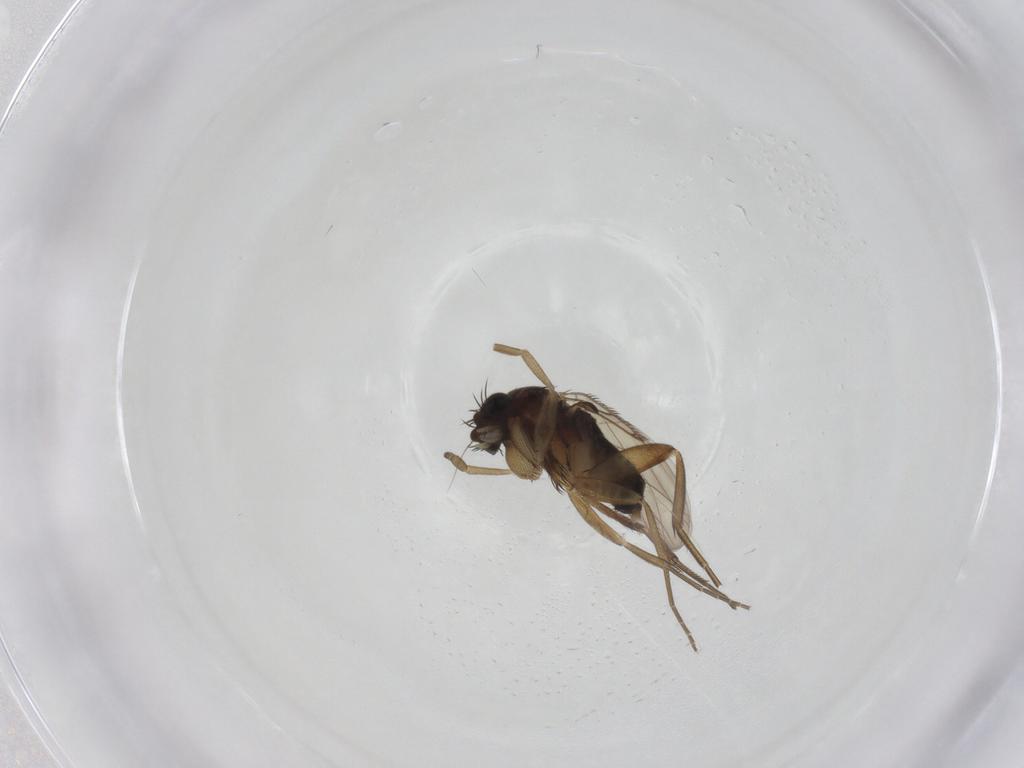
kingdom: Animalia
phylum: Arthropoda
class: Insecta
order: Diptera
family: Phoridae
